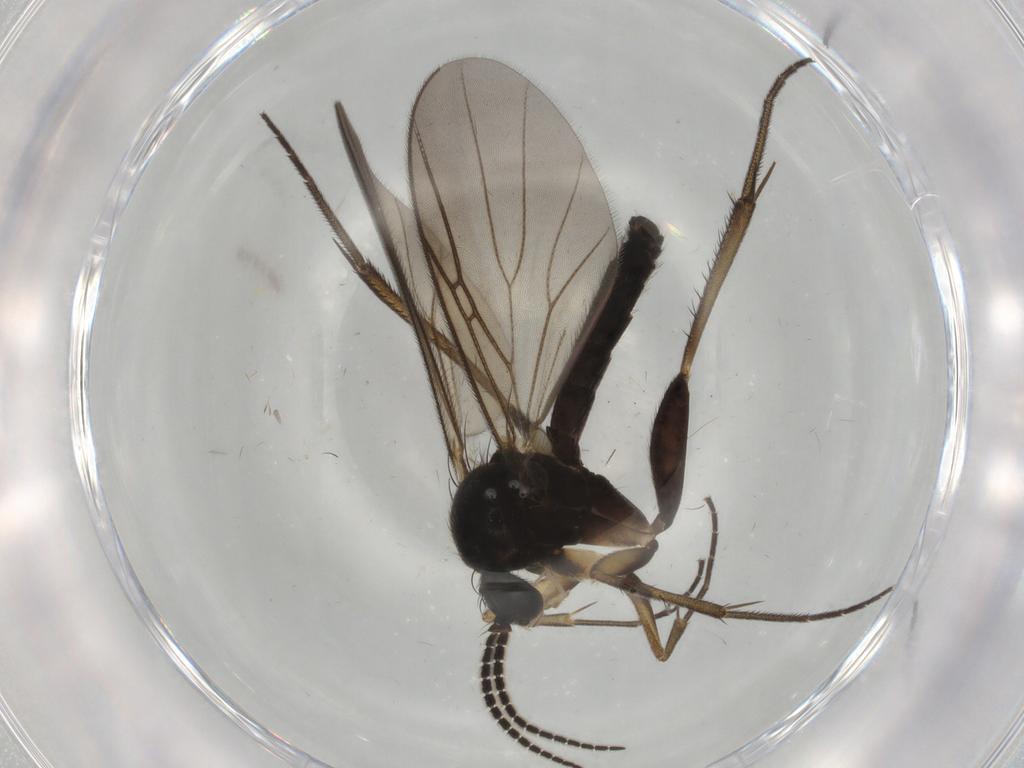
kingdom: Animalia
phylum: Arthropoda
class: Insecta
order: Diptera
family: Mycetophilidae
